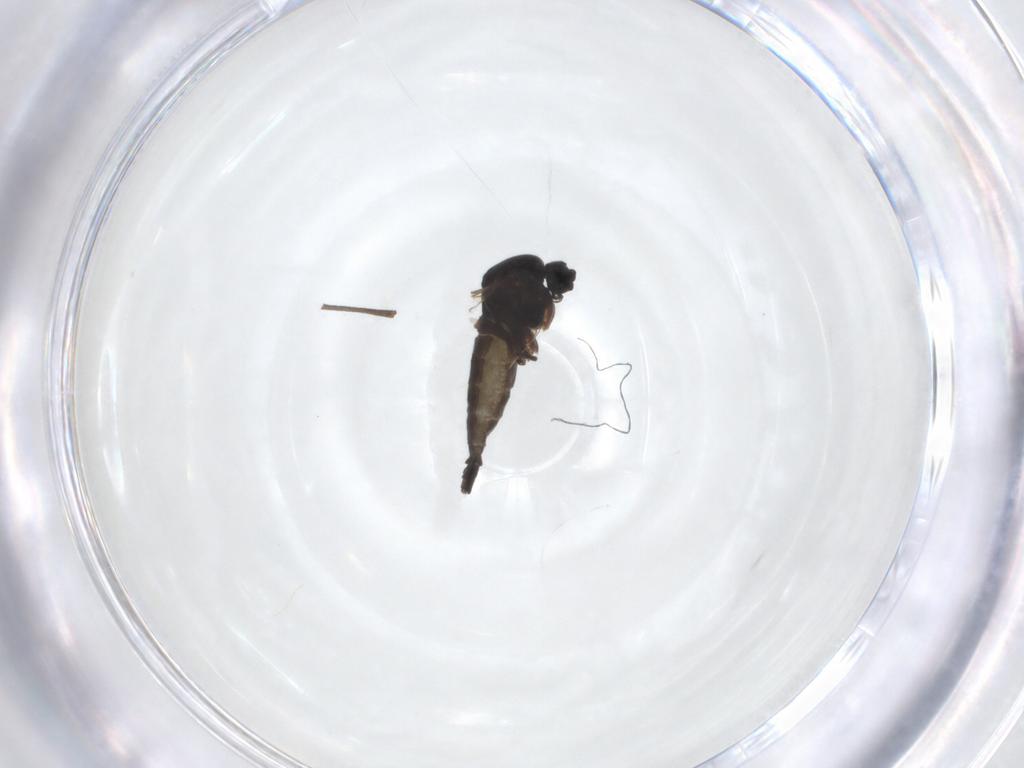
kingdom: Animalia
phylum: Arthropoda
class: Insecta
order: Diptera
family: Sciaridae
